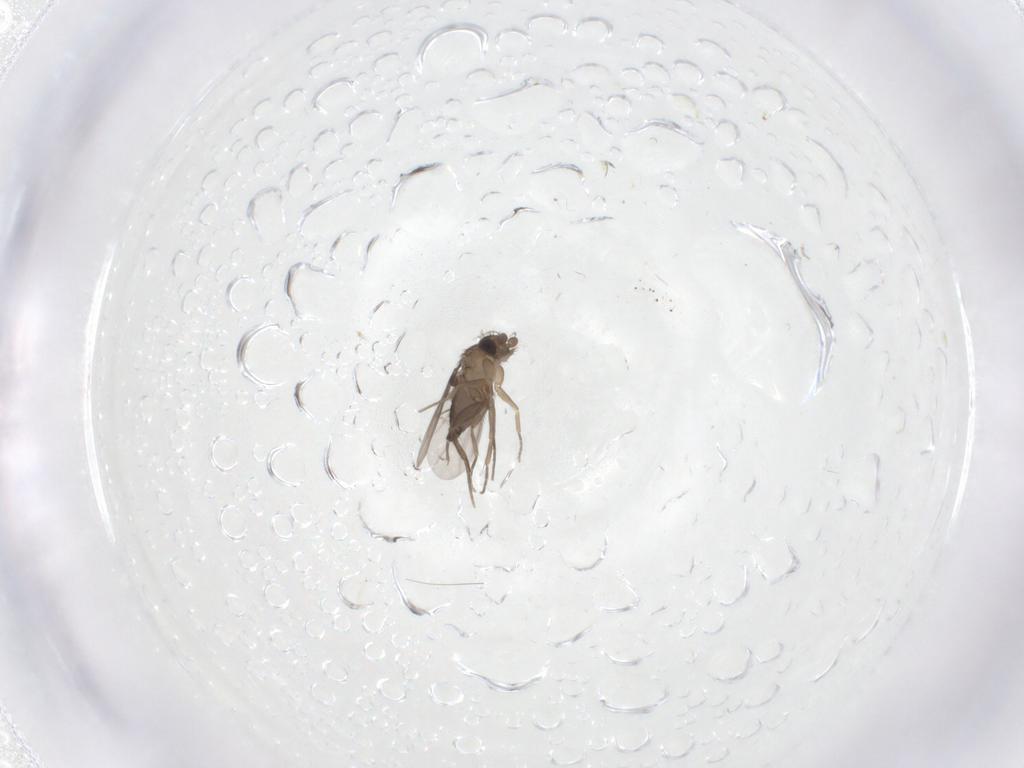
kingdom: Animalia
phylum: Arthropoda
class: Insecta
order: Diptera
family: Phoridae
